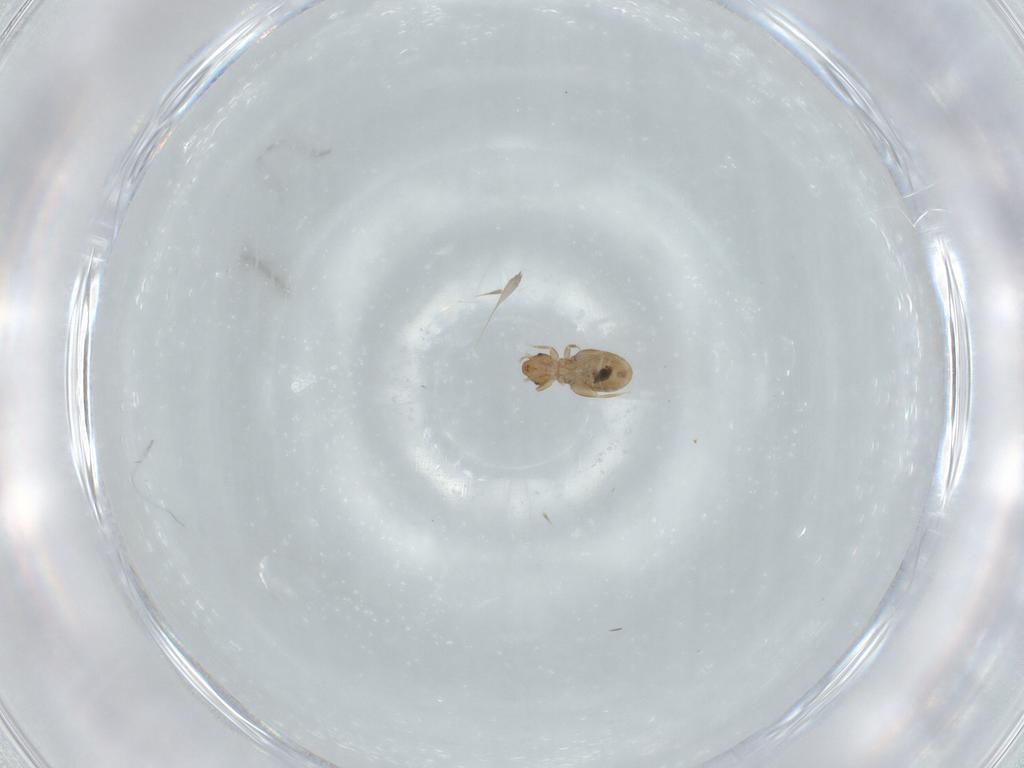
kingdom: Animalia
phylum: Arthropoda
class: Insecta
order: Psocodea
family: Liposcelididae
